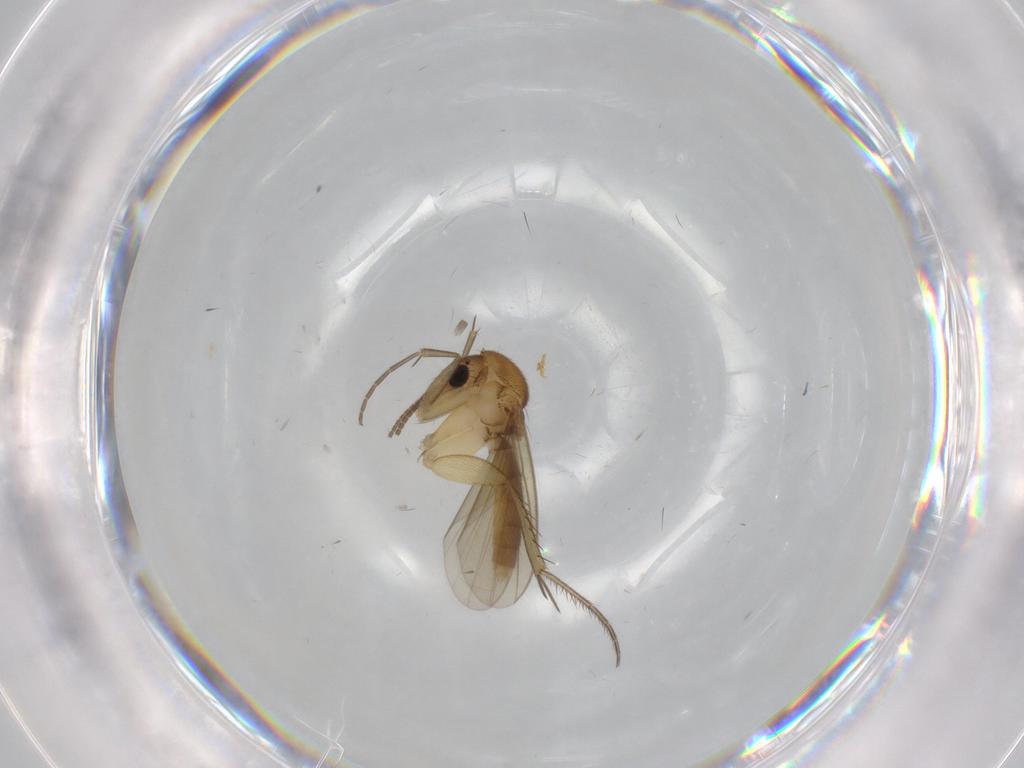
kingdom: Animalia
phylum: Arthropoda
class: Insecta
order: Diptera
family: Mycetophilidae
